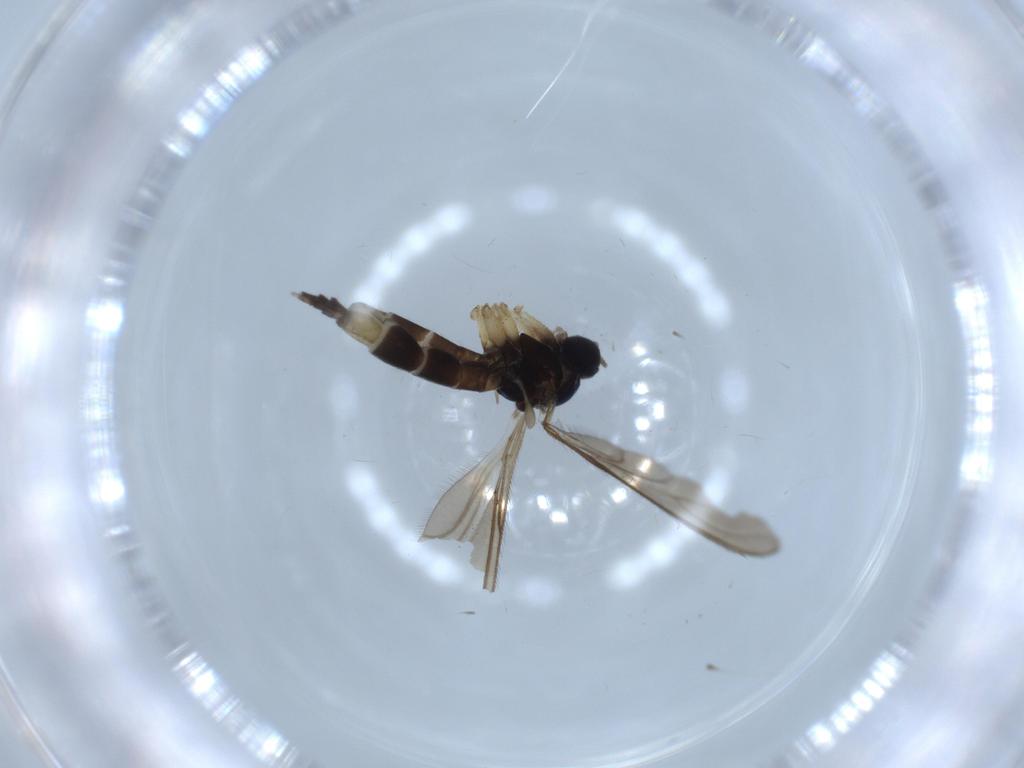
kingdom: Animalia
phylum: Arthropoda
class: Insecta
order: Diptera
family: Sciaridae
